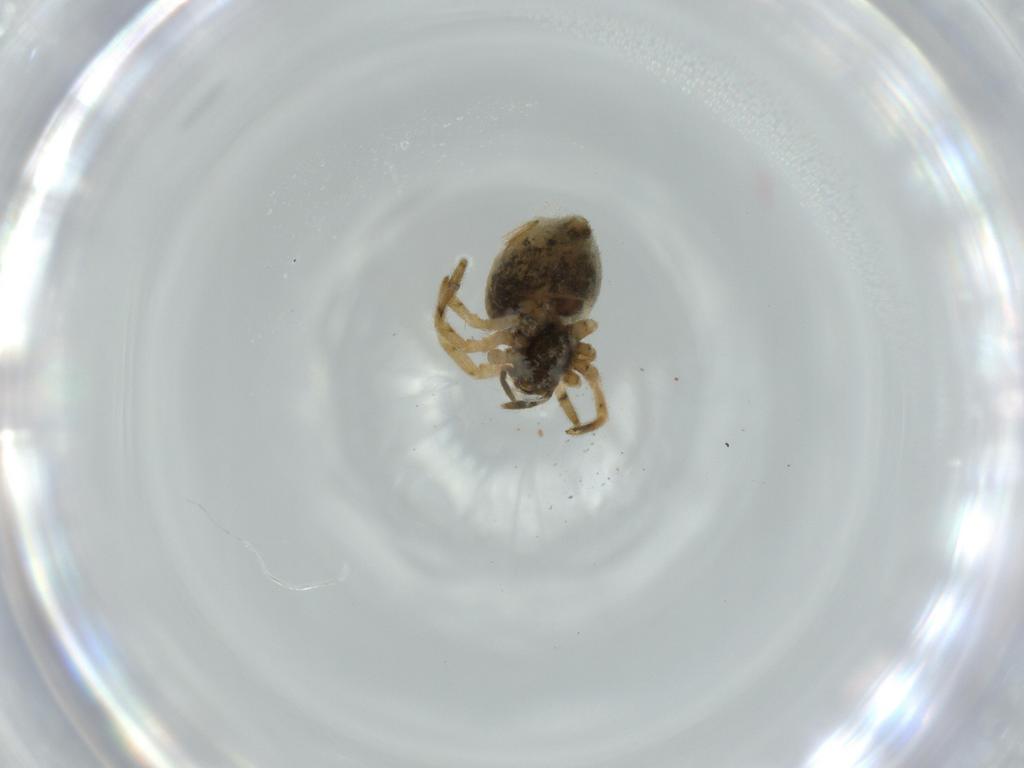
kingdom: Animalia
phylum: Arthropoda
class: Arachnida
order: Araneae
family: Theridiidae
